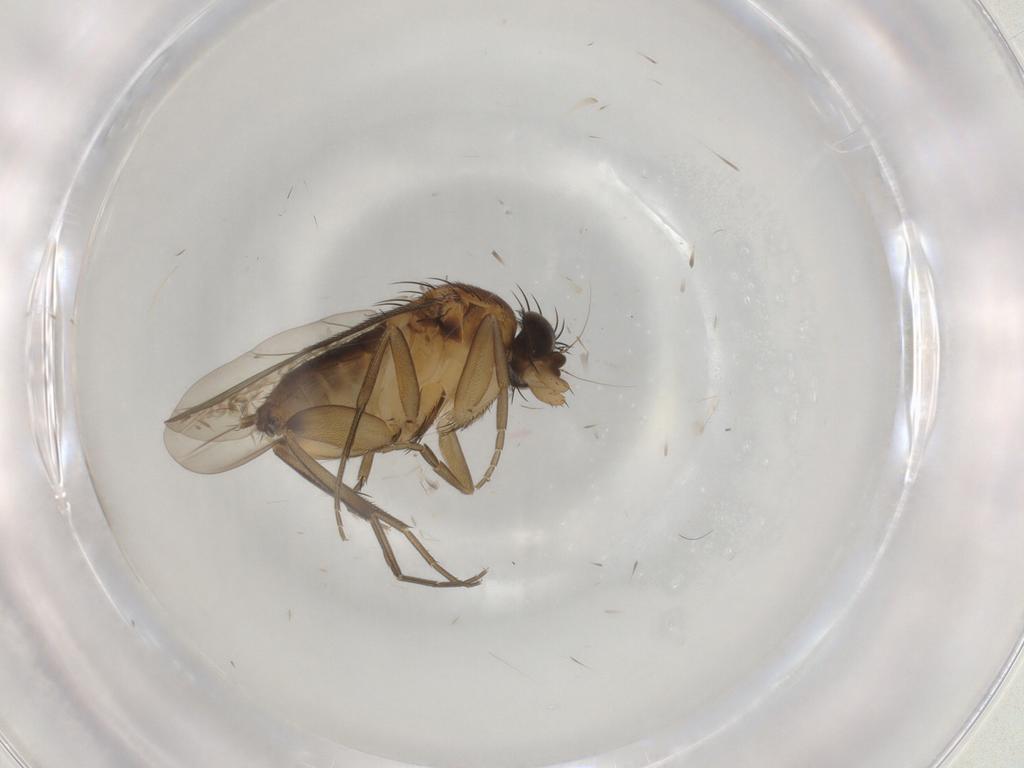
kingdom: Animalia
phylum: Arthropoda
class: Insecta
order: Diptera
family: Phoridae
